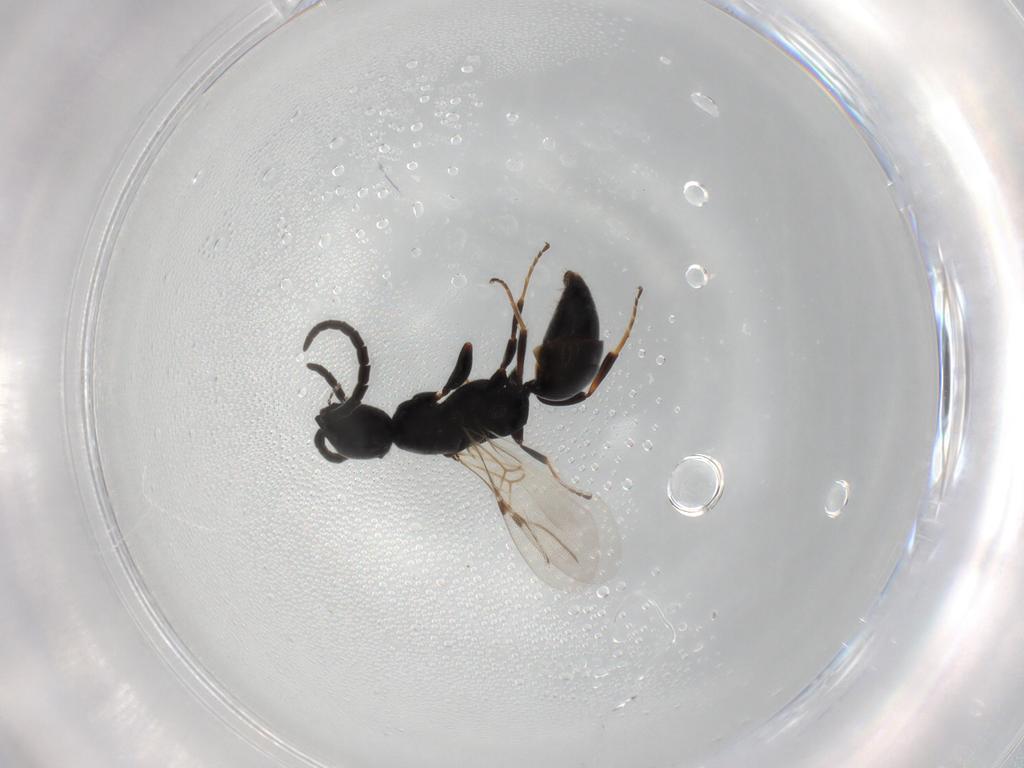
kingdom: Animalia
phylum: Arthropoda
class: Insecta
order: Hymenoptera
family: Bethylidae
